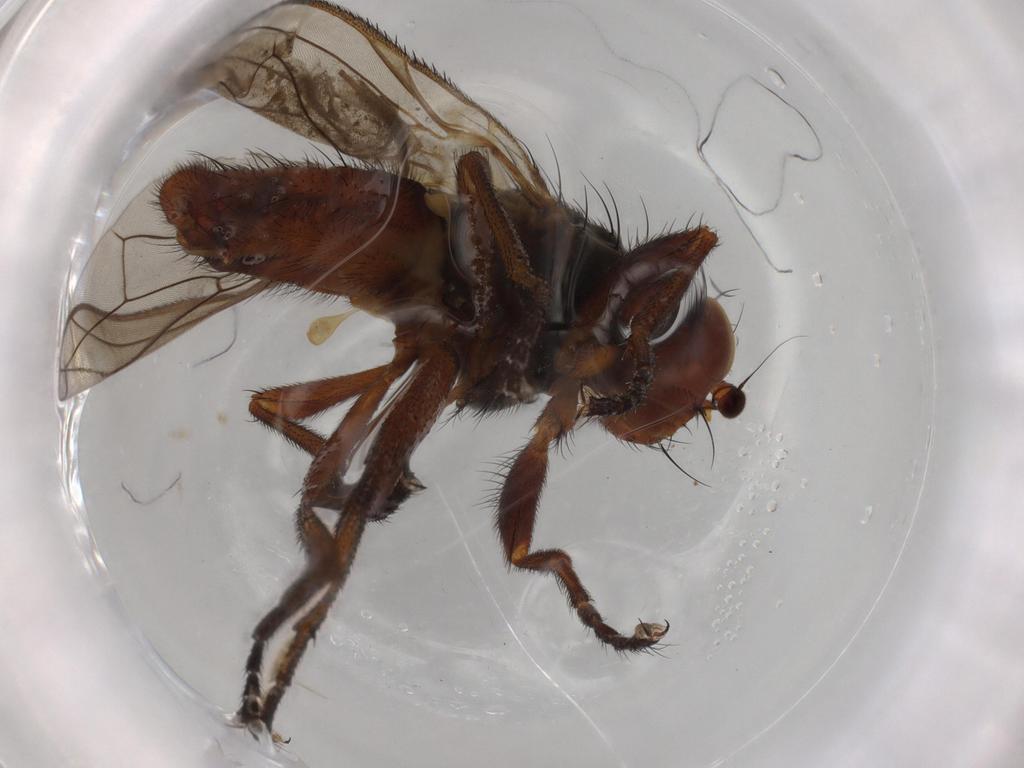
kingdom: Animalia
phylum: Arthropoda
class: Insecta
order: Diptera
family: Heleomyzidae
